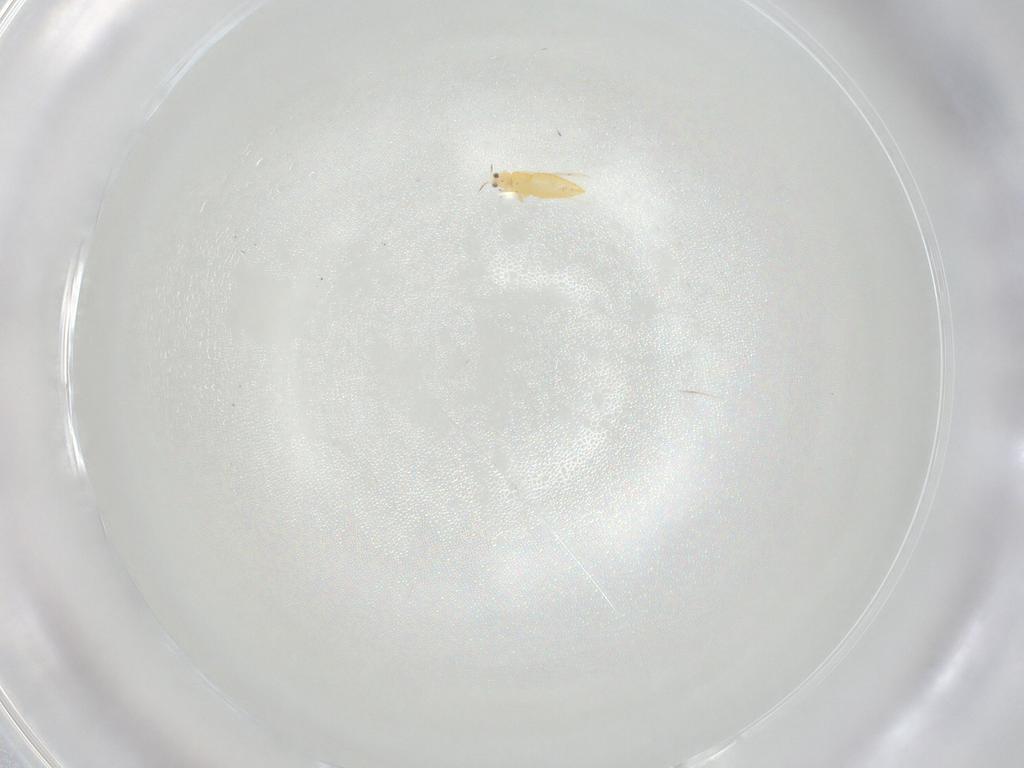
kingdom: Animalia
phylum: Arthropoda
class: Insecta
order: Thysanoptera
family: Thripidae
